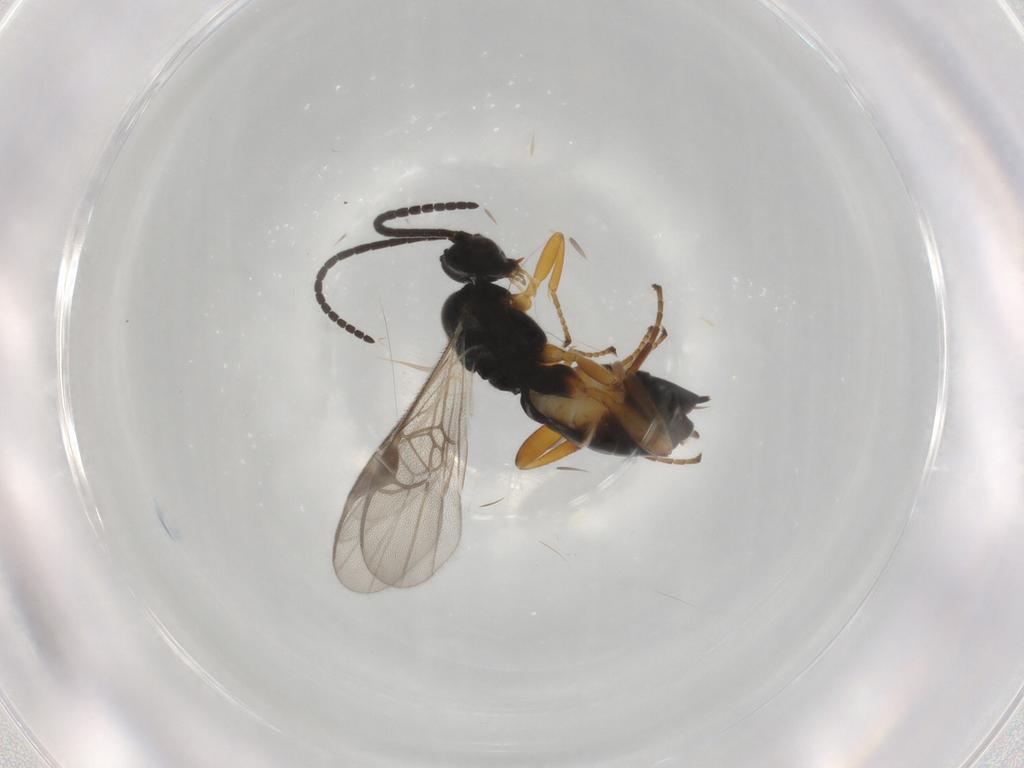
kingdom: Animalia
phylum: Arthropoda
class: Insecta
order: Hymenoptera
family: Braconidae
